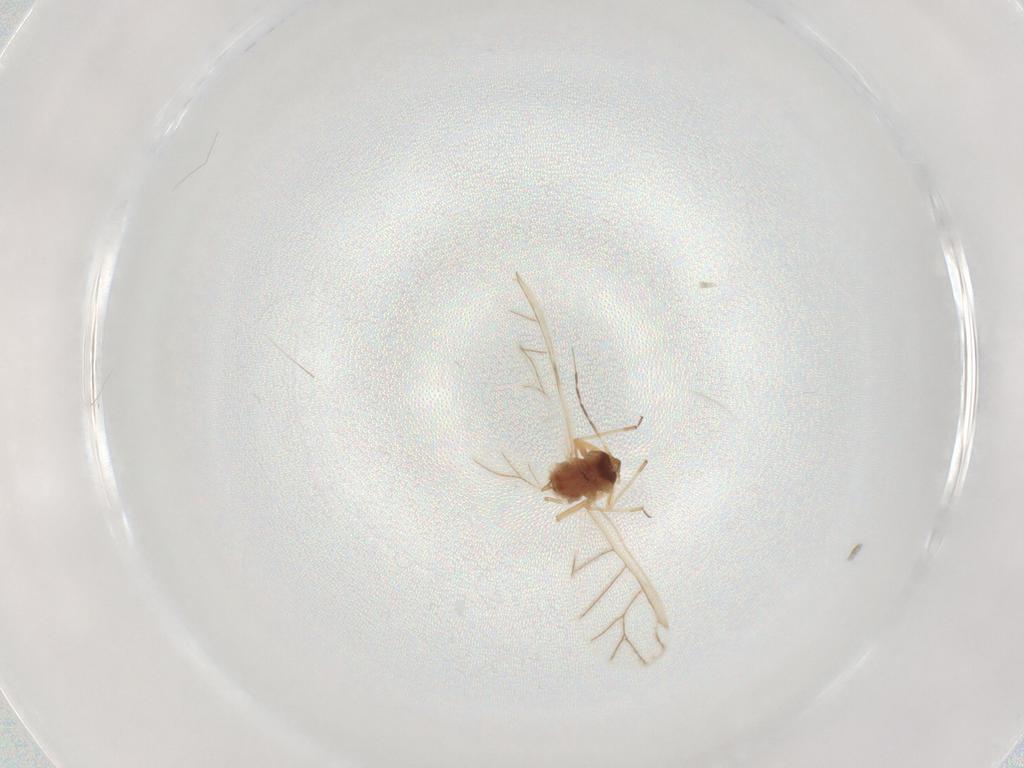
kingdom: Animalia
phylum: Arthropoda
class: Insecta
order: Hemiptera
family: Aphididae
